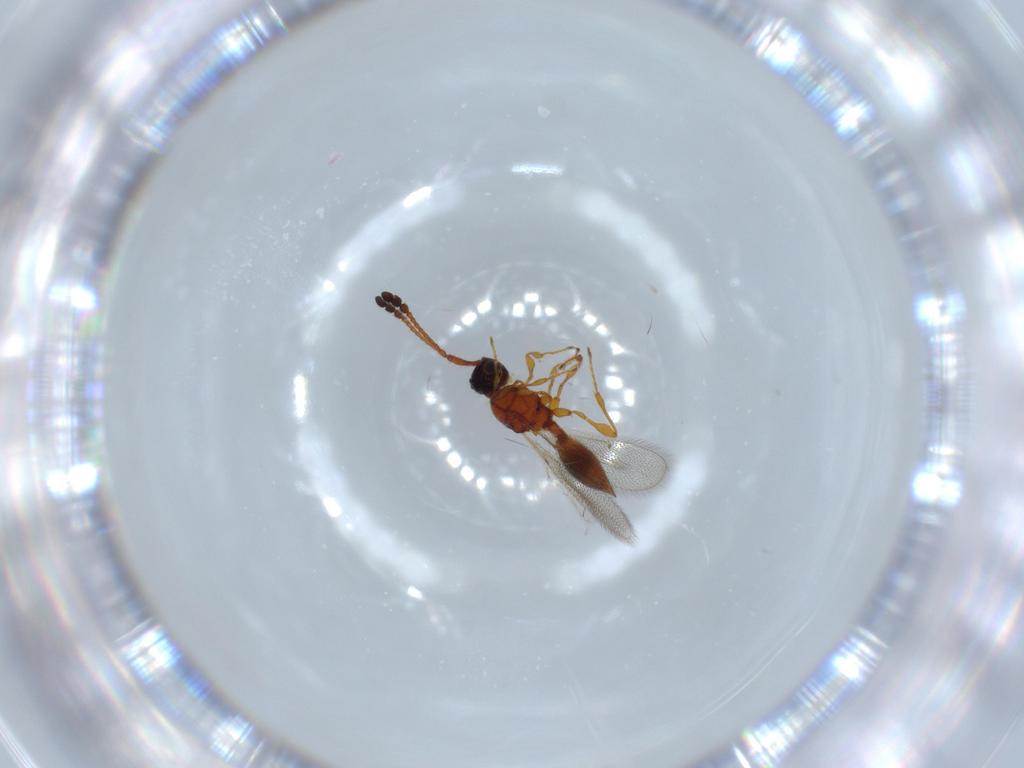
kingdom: Animalia
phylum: Arthropoda
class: Insecta
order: Hymenoptera
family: Diapriidae
